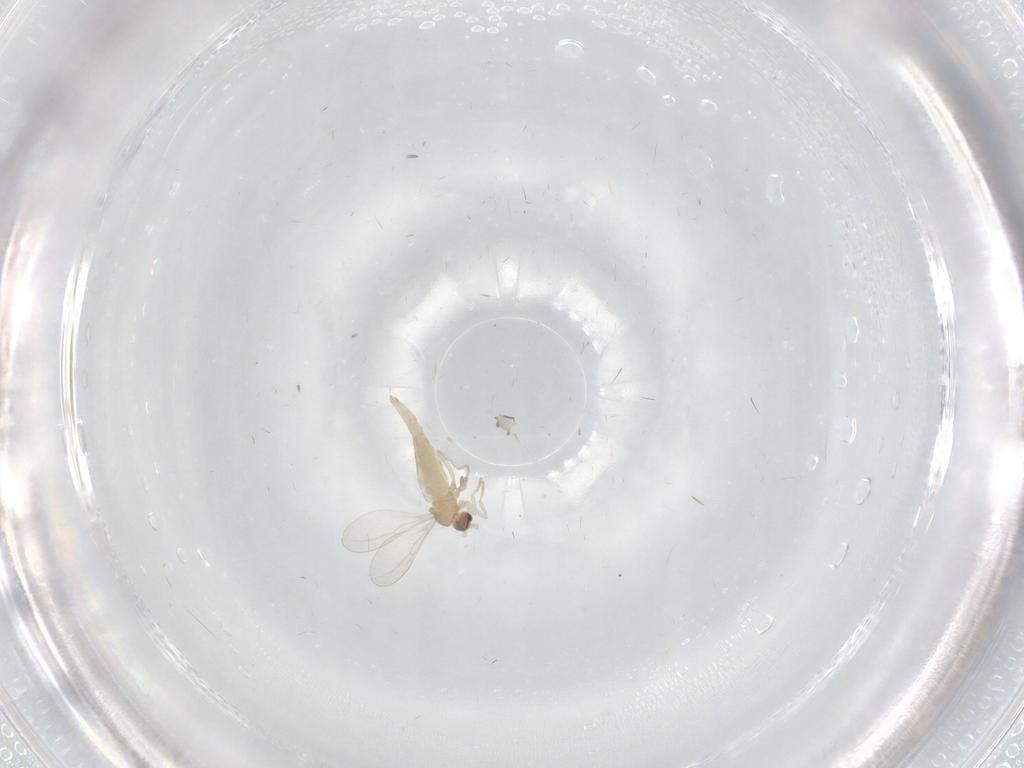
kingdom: Animalia
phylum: Arthropoda
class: Insecta
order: Diptera
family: Muscidae
